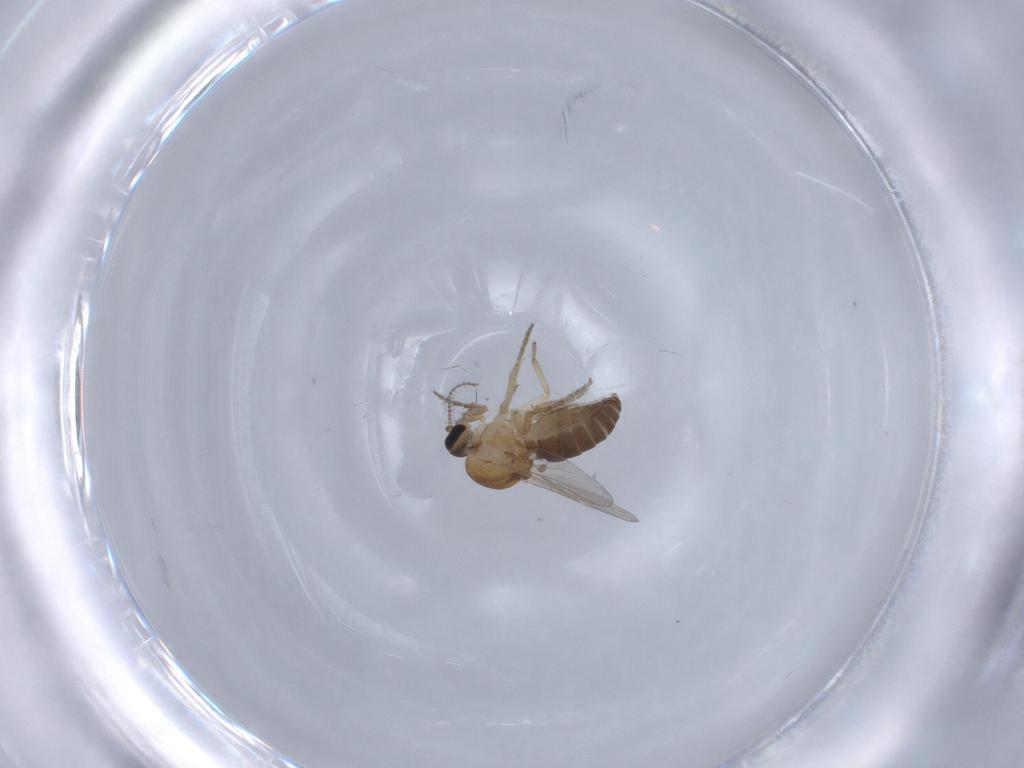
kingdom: Animalia
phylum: Arthropoda
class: Insecta
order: Diptera
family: Ceratopogonidae
